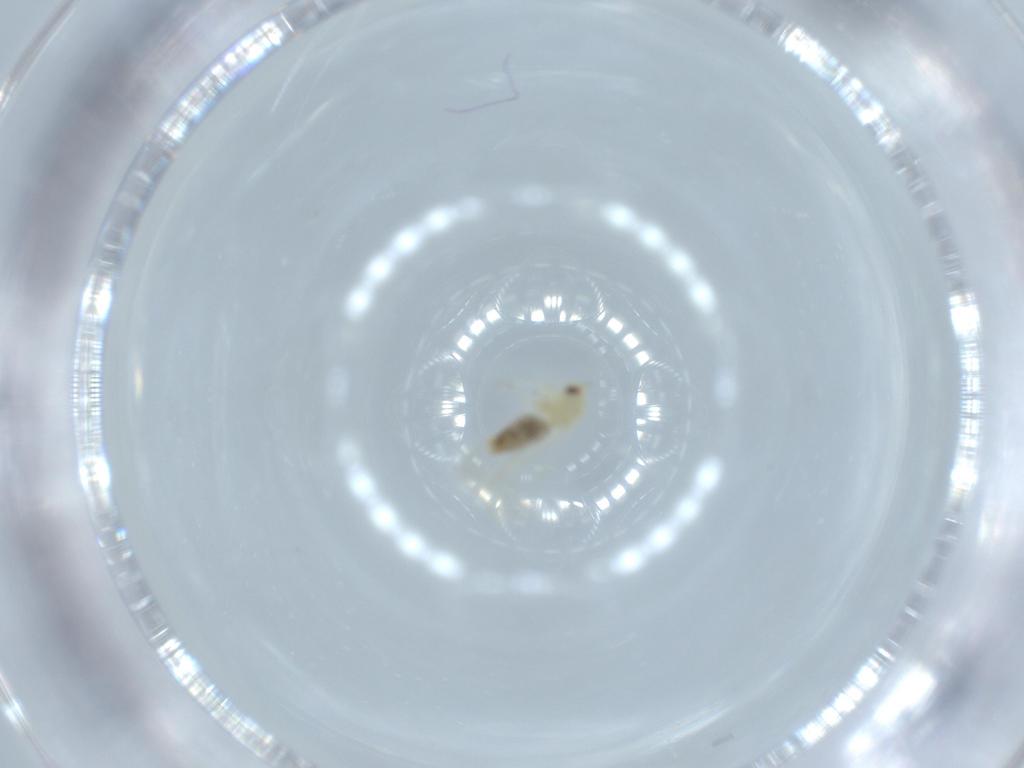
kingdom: Animalia
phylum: Arthropoda
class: Insecta
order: Hemiptera
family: Aleyrodidae
